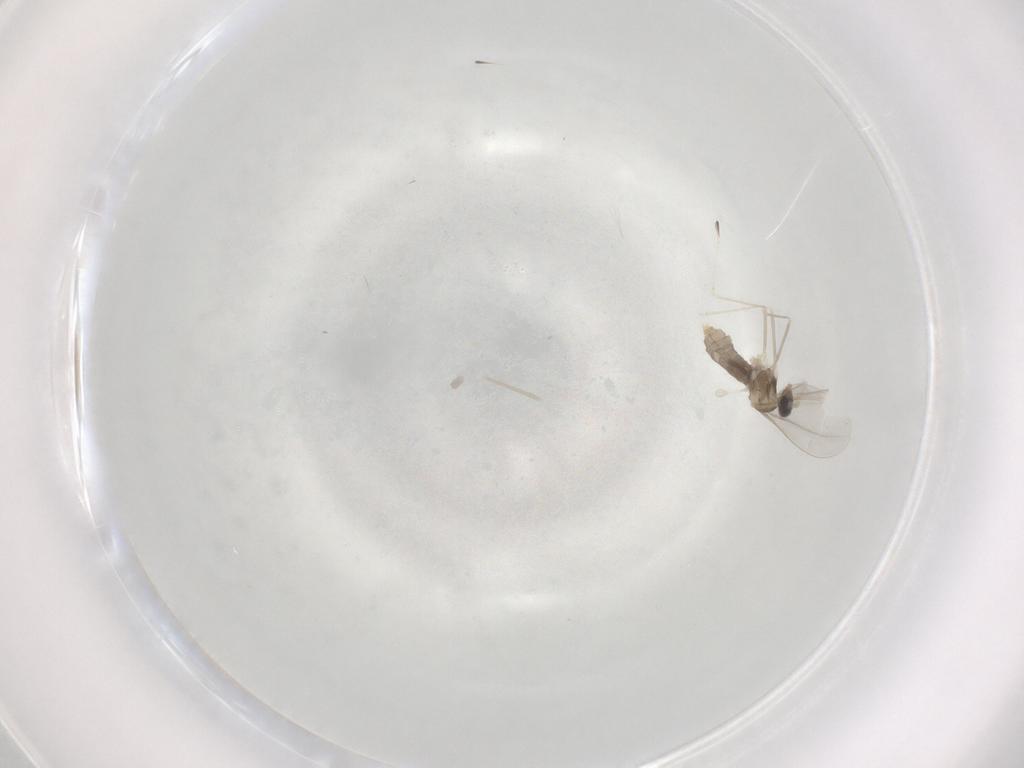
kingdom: Animalia
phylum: Arthropoda
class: Insecta
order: Diptera
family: Cecidomyiidae
